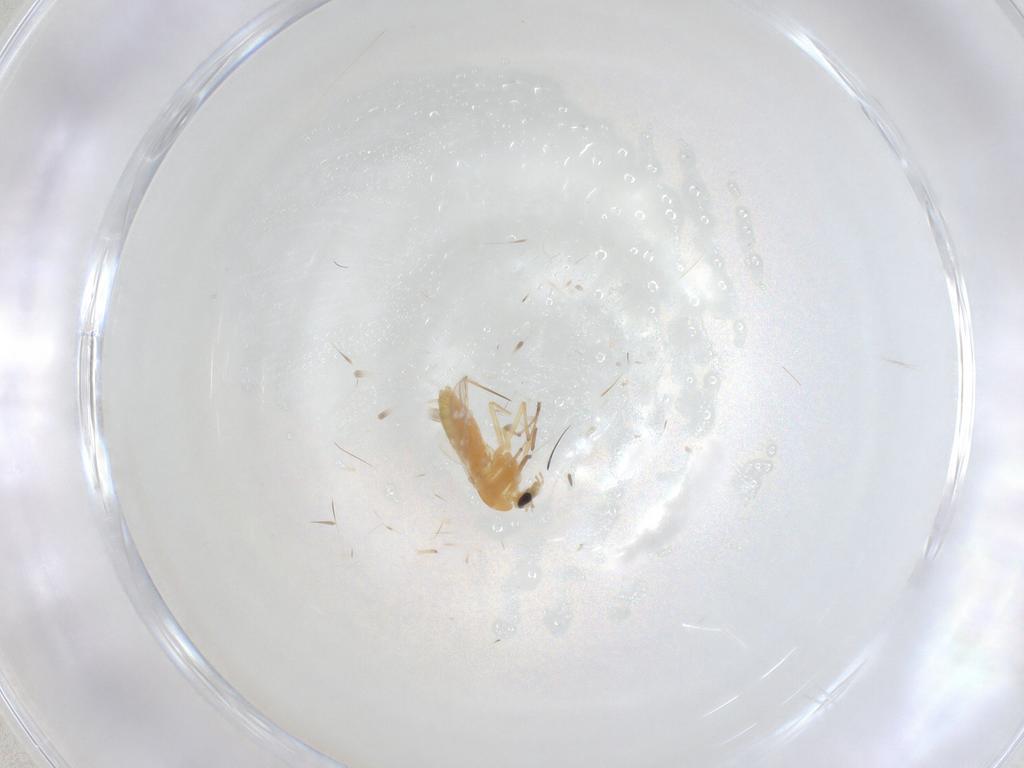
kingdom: Animalia
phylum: Arthropoda
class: Insecta
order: Diptera
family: Chironomidae
